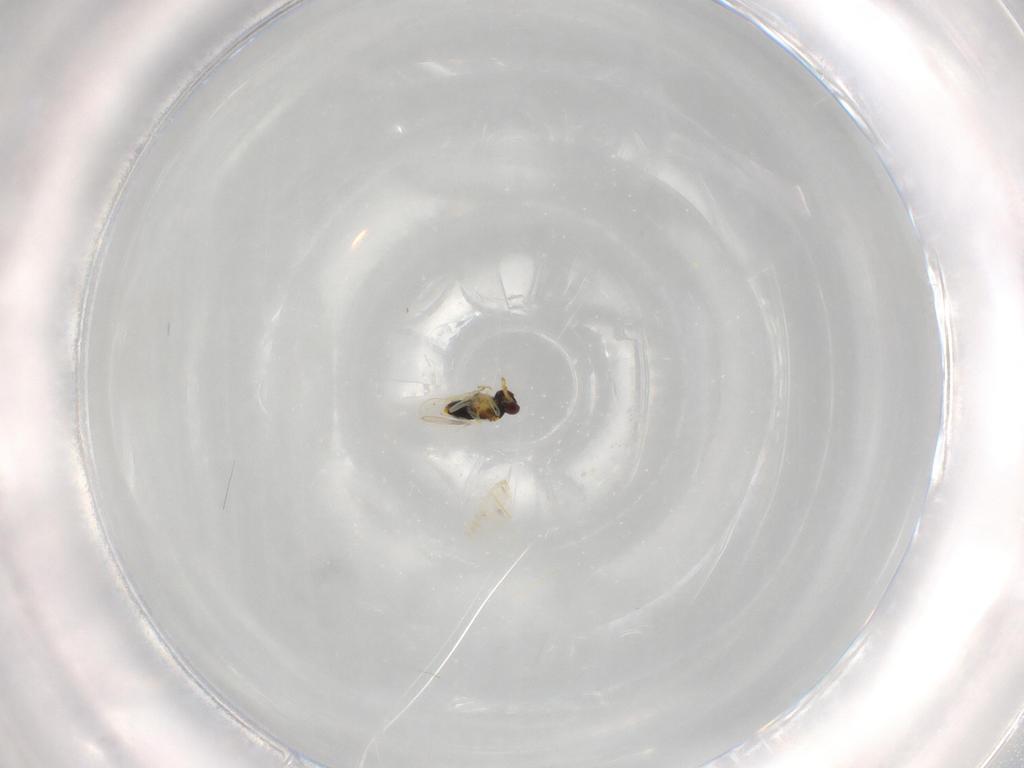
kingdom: Animalia
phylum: Arthropoda
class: Insecta
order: Hymenoptera
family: Aphelinidae
